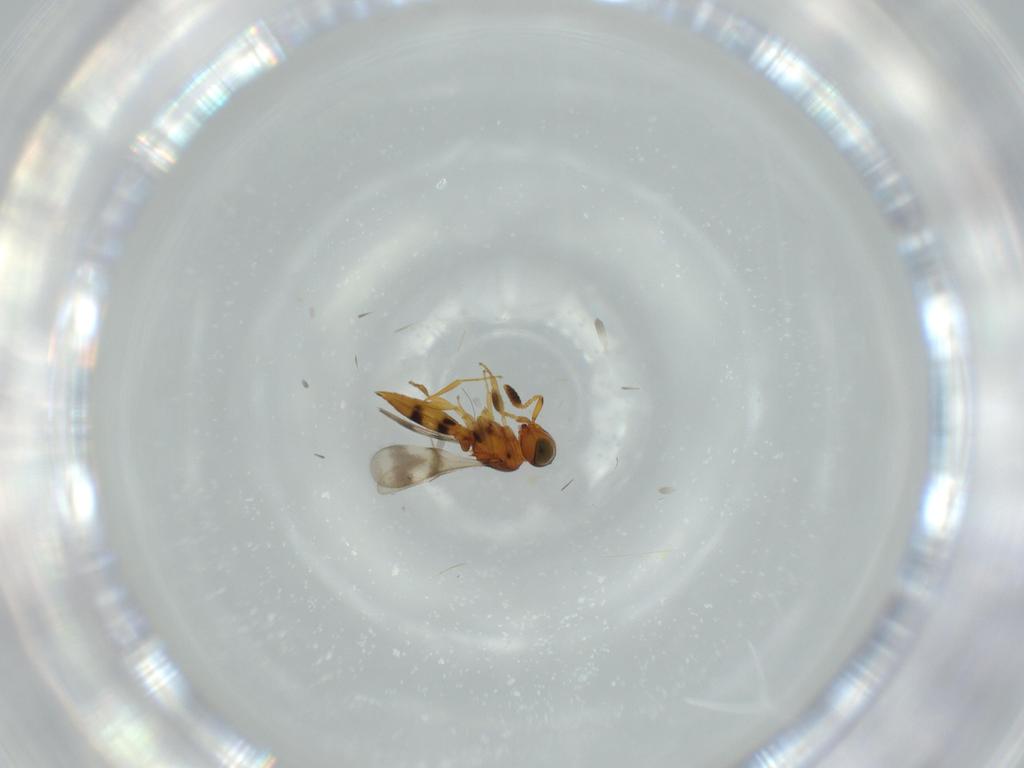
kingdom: Animalia
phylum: Arthropoda
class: Insecta
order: Hymenoptera
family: Scelionidae
